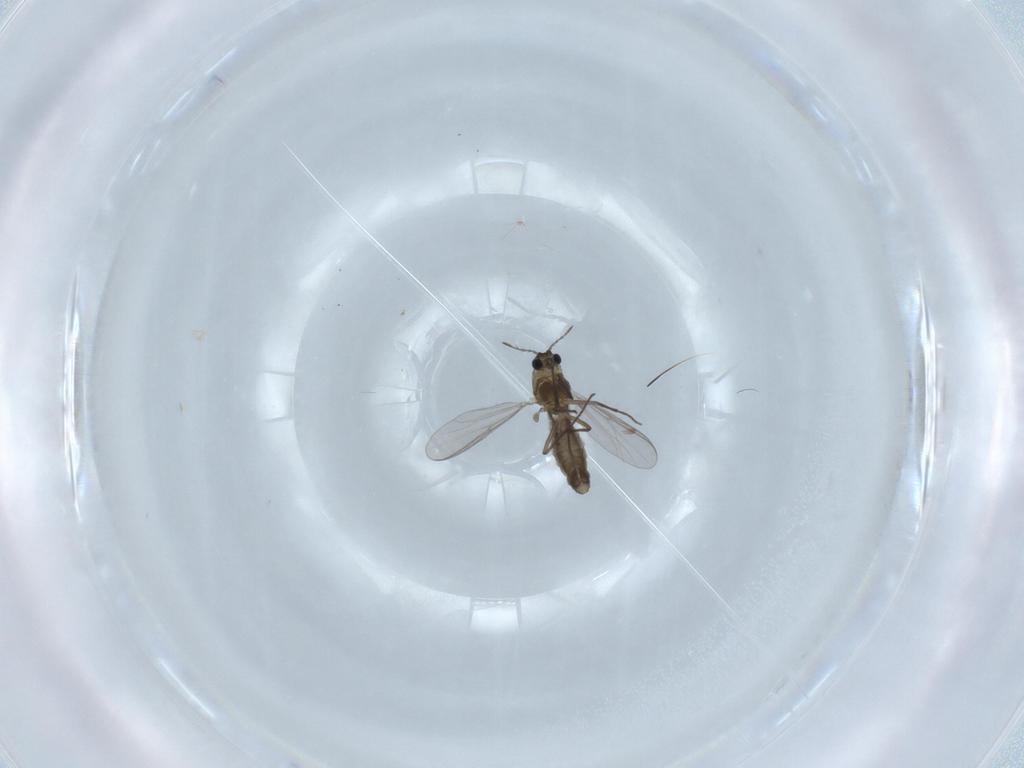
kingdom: Animalia
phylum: Arthropoda
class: Insecta
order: Diptera
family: Chironomidae
